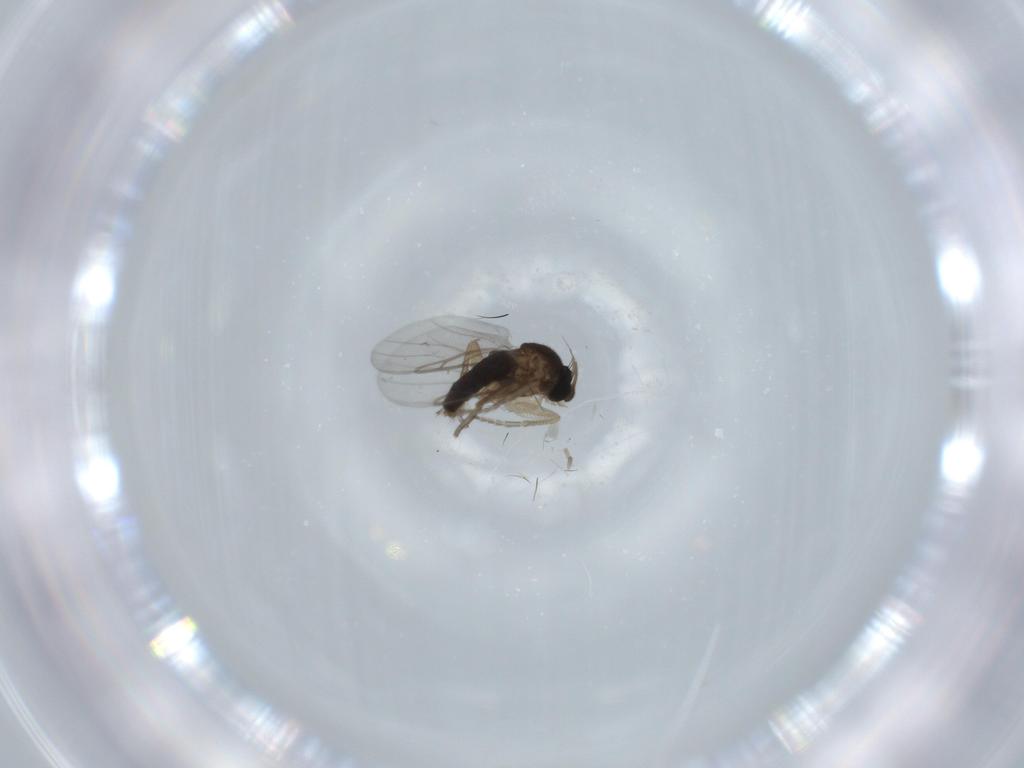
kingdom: Animalia
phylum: Arthropoda
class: Insecta
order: Diptera
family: Phoridae
